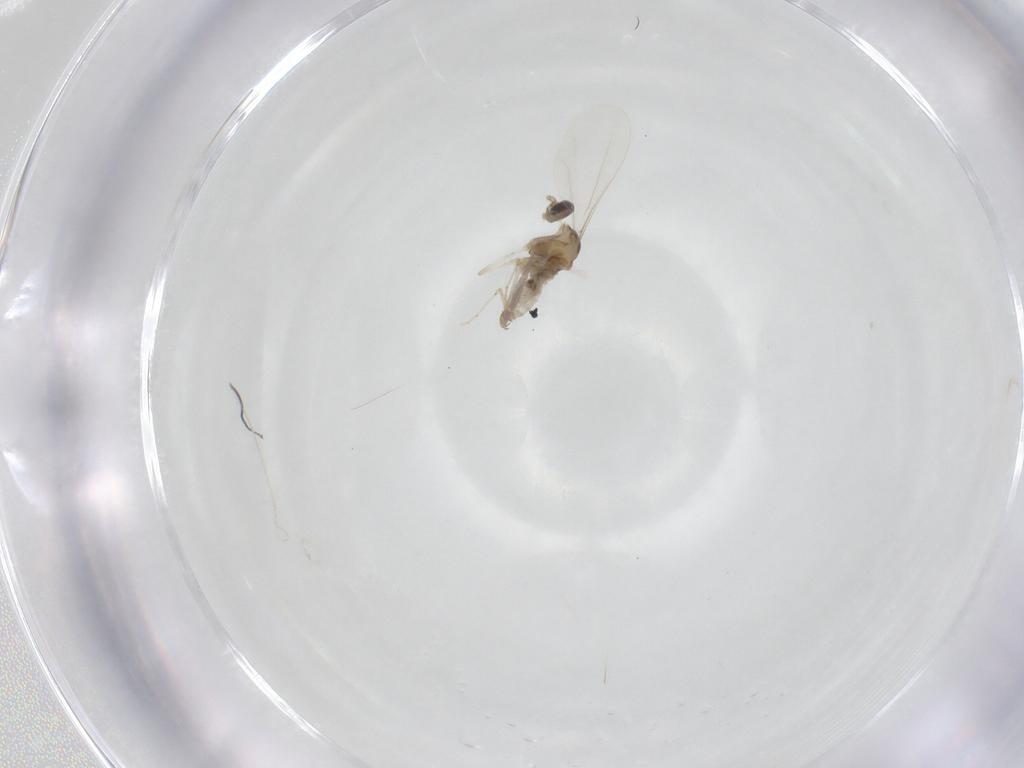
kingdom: Animalia
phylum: Arthropoda
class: Insecta
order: Diptera
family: Cecidomyiidae
